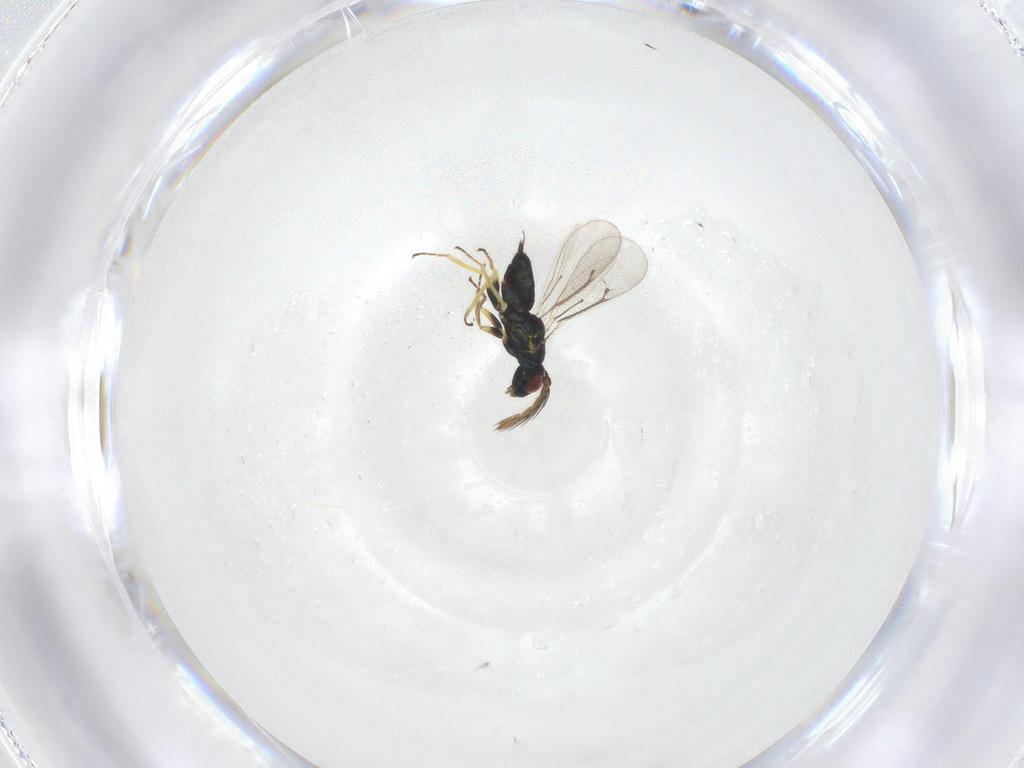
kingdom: Animalia
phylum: Arthropoda
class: Insecta
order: Hymenoptera
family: Eulophidae
